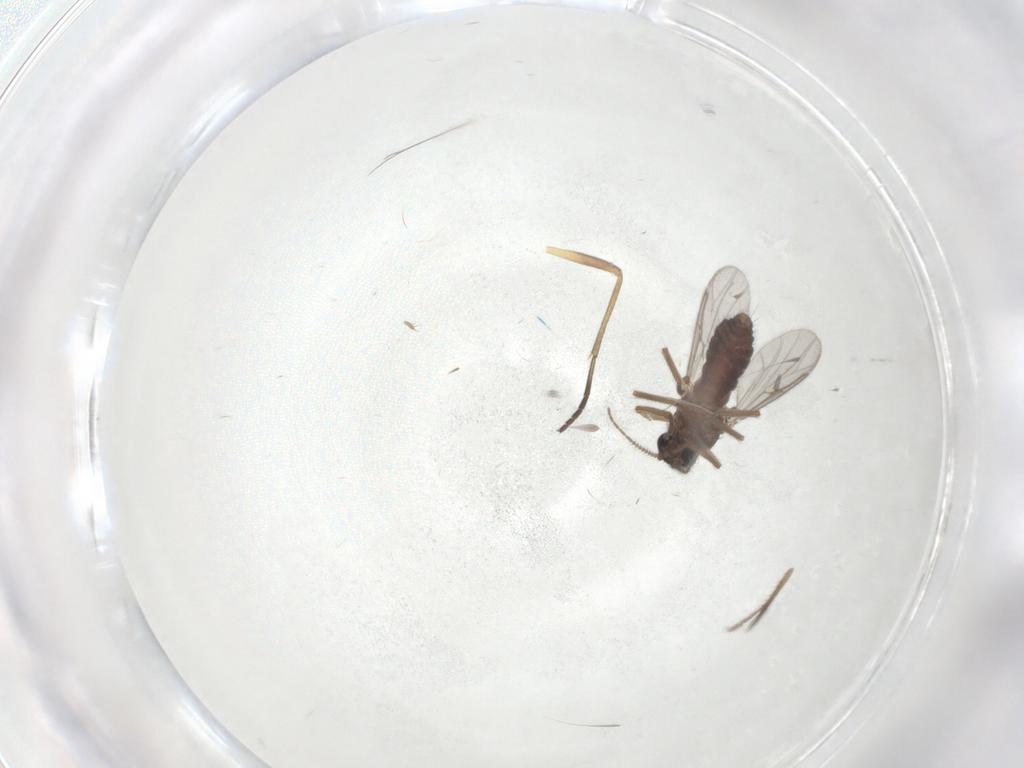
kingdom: Animalia
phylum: Arthropoda
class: Insecta
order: Diptera
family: Ceratopogonidae
